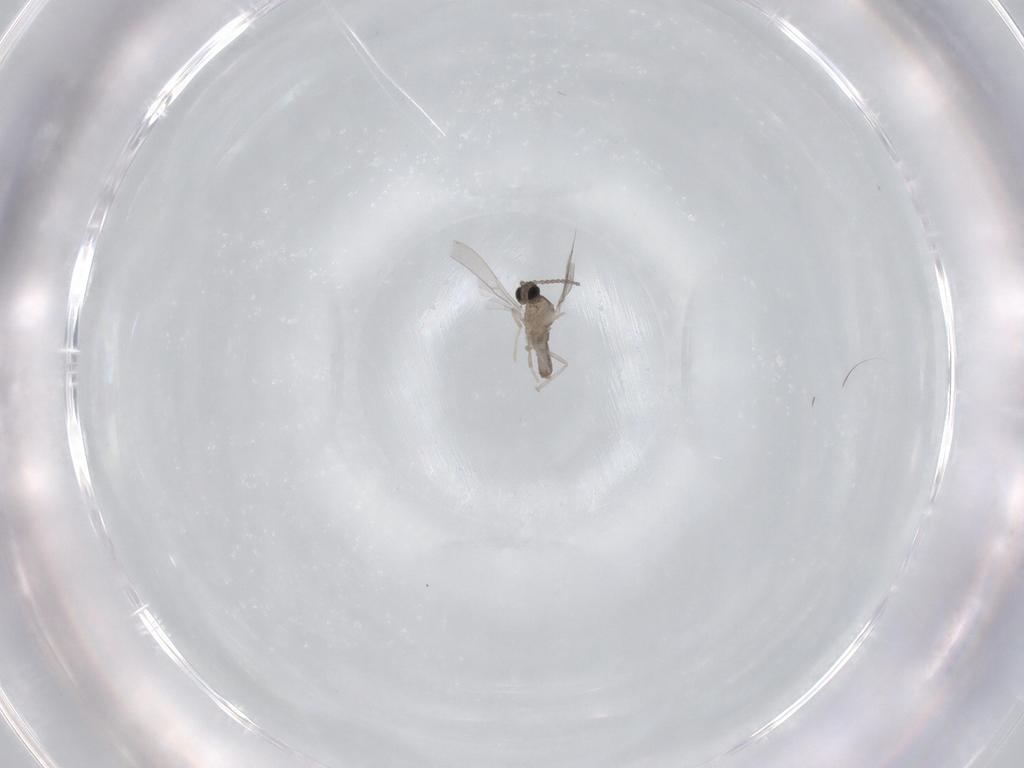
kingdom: Animalia
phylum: Arthropoda
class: Insecta
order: Diptera
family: Cecidomyiidae
